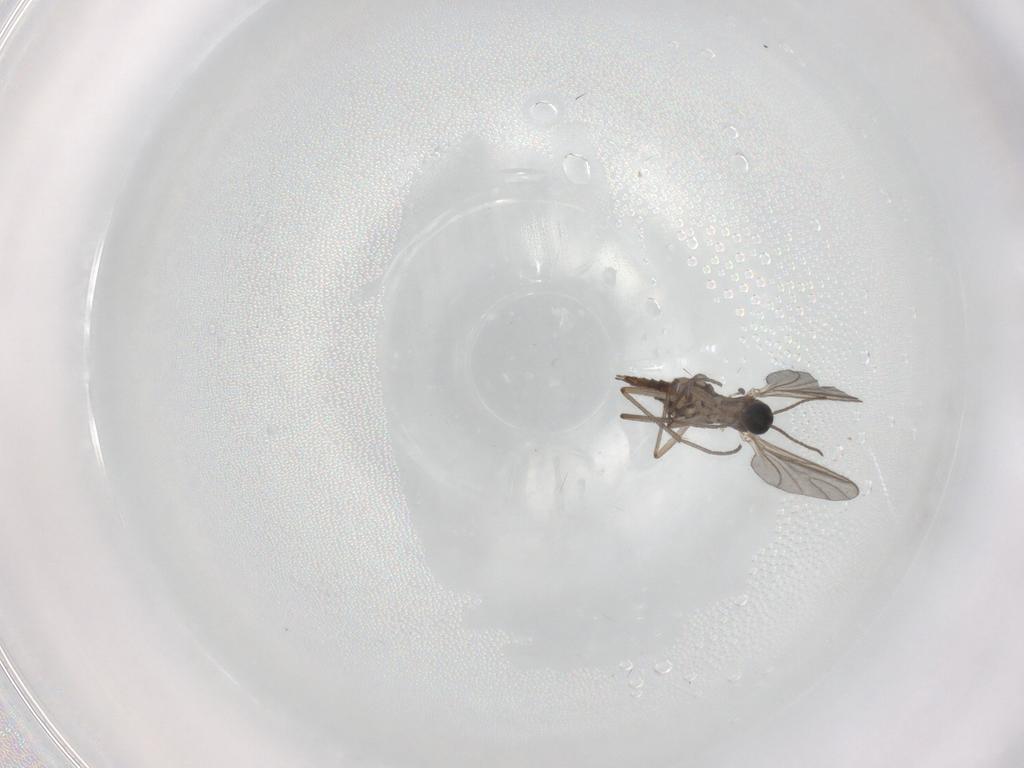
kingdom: Animalia
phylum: Arthropoda
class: Insecta
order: Diptera
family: Sciaridae
